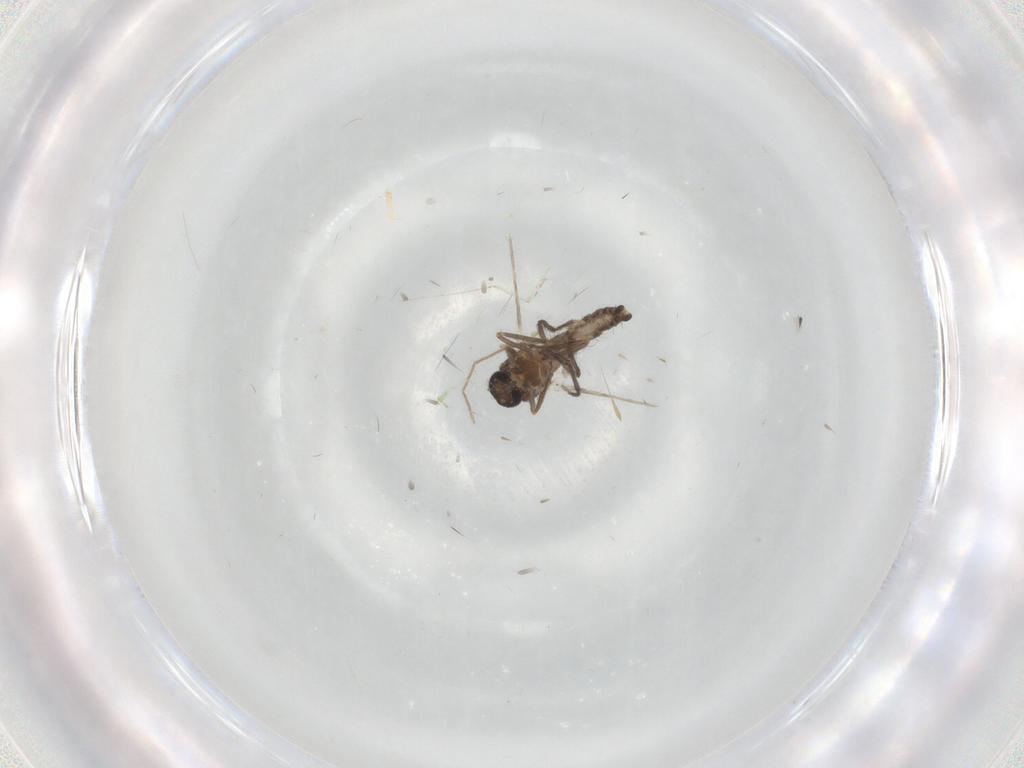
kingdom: Animalia
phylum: Arthropoda
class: Insecta
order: Diptera
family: Ceratopogonidae
